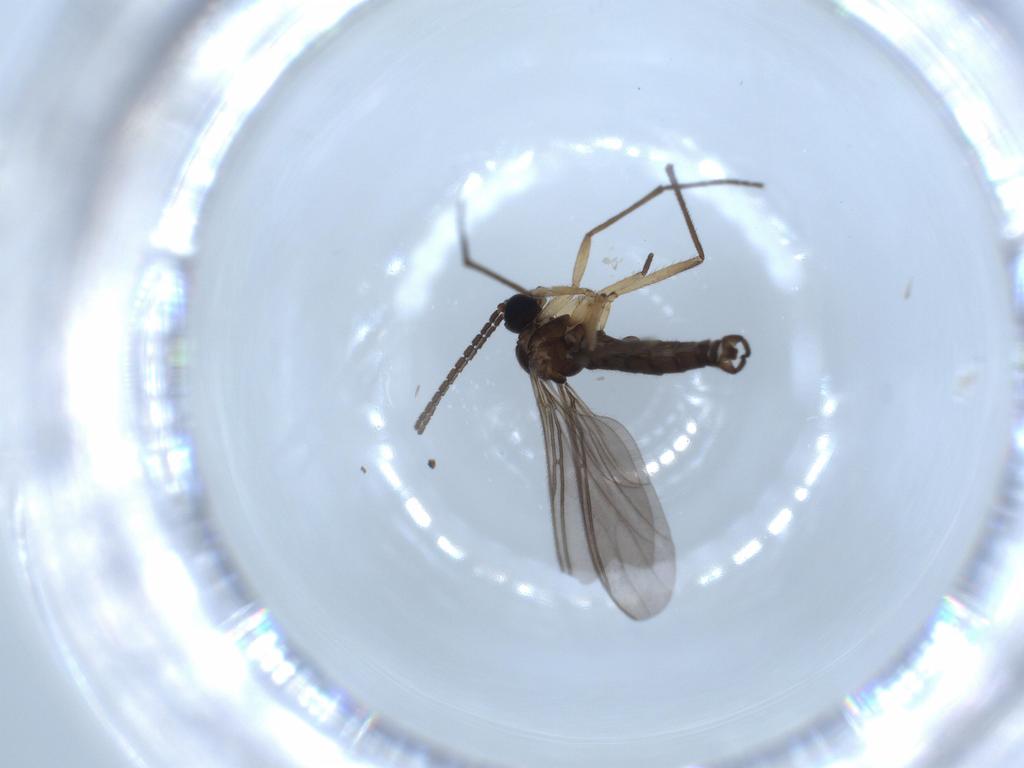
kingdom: Animalia
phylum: Arthropoda
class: Insecta
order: Diptera
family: Sciaridae
